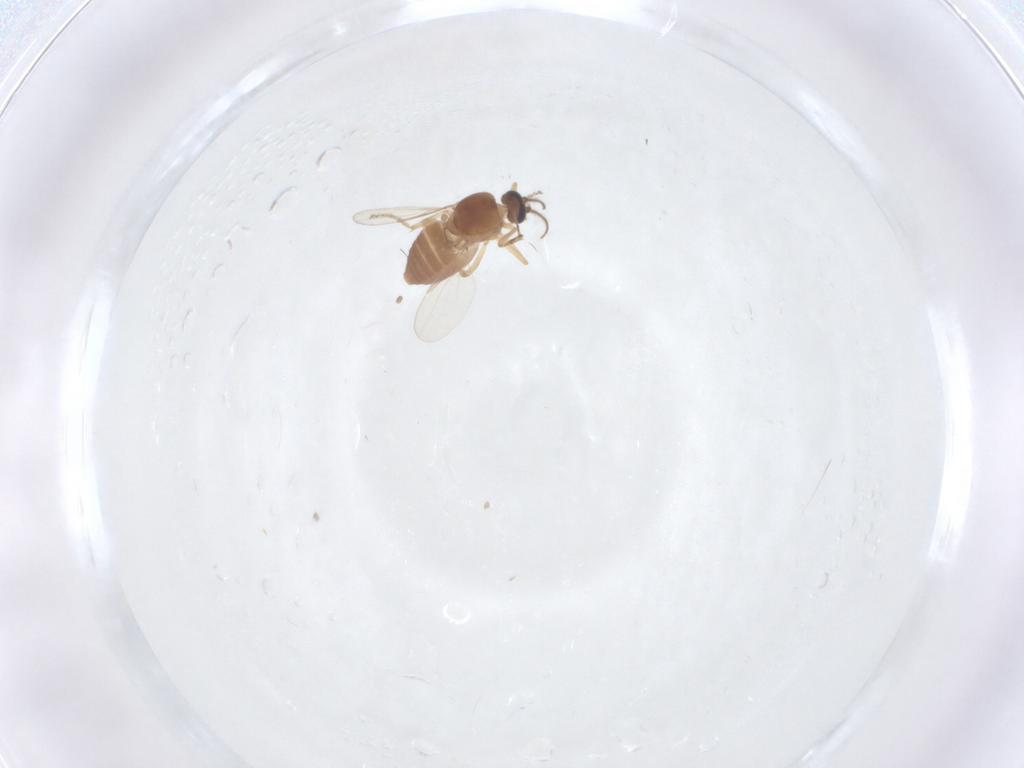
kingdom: Animalia
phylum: Arthropoda
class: Insecta
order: Diptera
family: Ceratopogonidae
